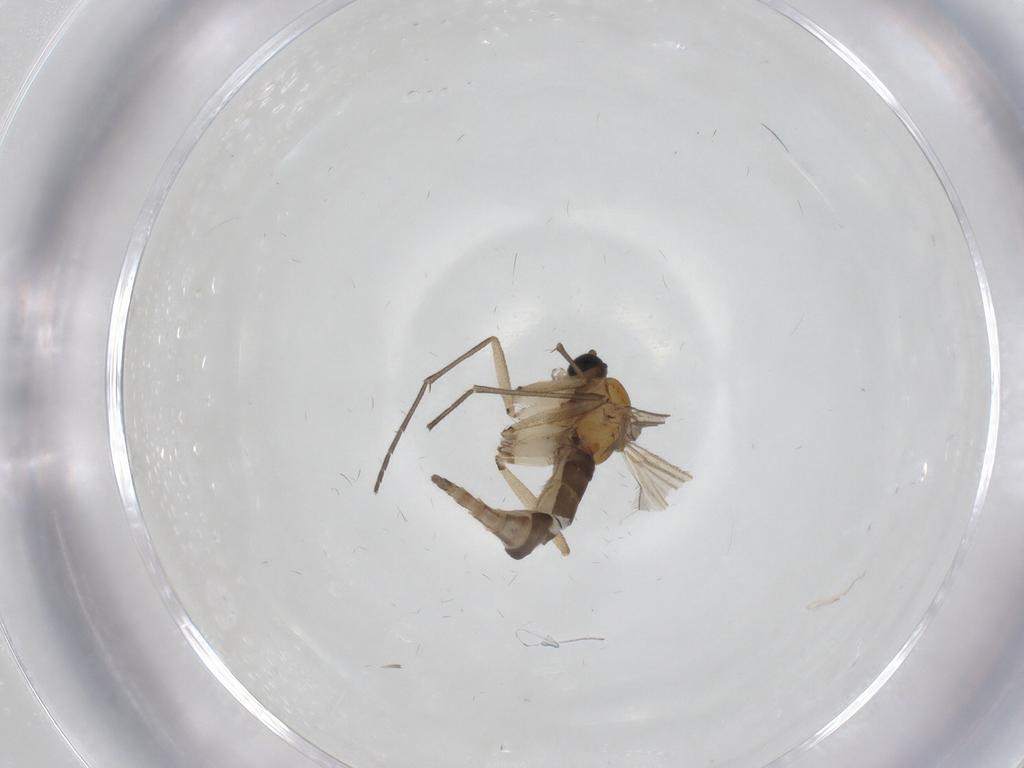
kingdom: Animalia
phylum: Arthropoda
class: Insecta
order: Diptera
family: Sciaridae
